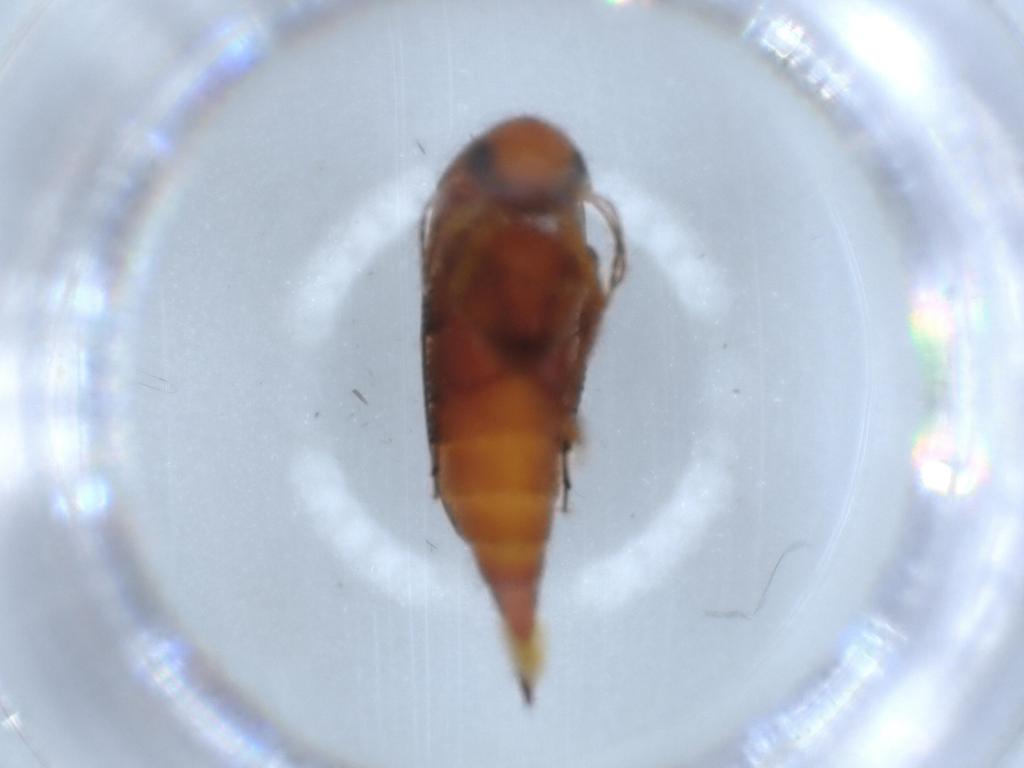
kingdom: Animalia
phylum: Arthropoda
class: Insecta
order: Coleoptera
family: Mordellidae
